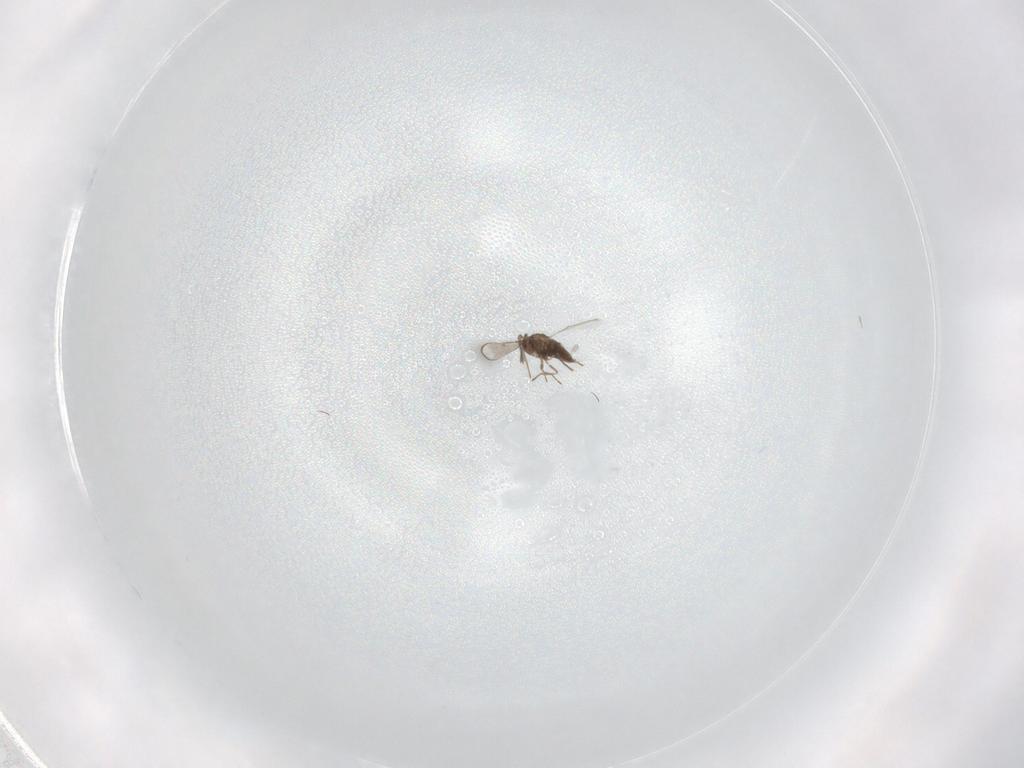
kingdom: Animalia
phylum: Arthropoda
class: Insecta
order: Hymenoptera
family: Trichogrammatidae
